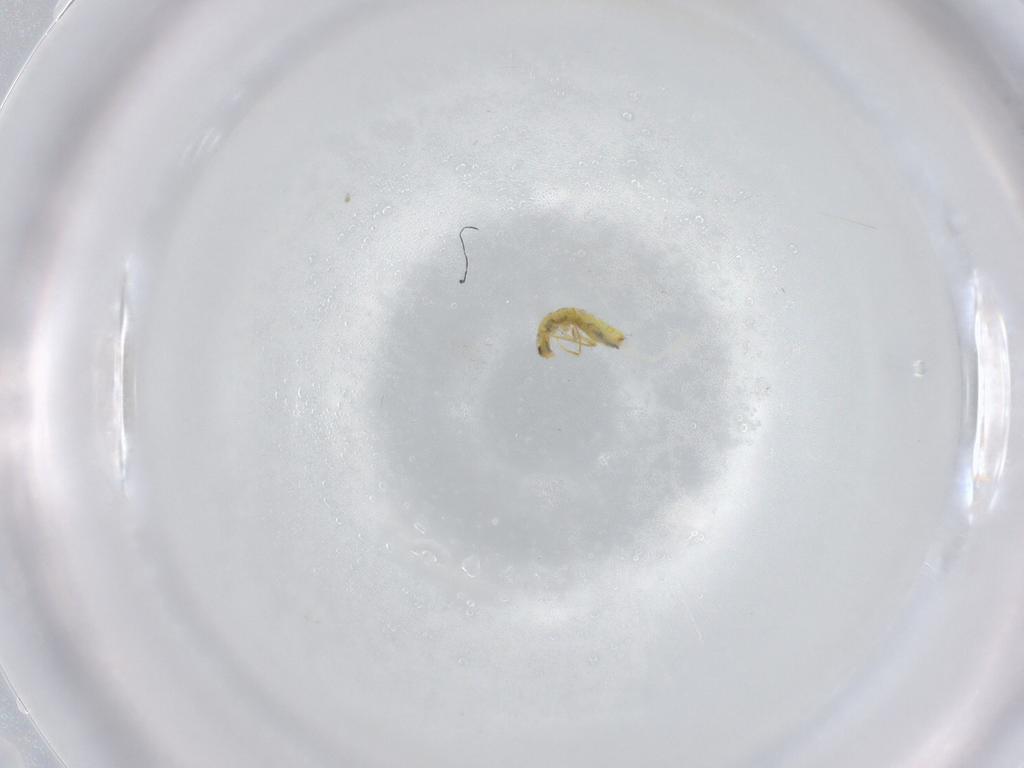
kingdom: Animalia
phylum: Arthropoda
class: Insecta
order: Diptera
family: Cecidomyiidae
